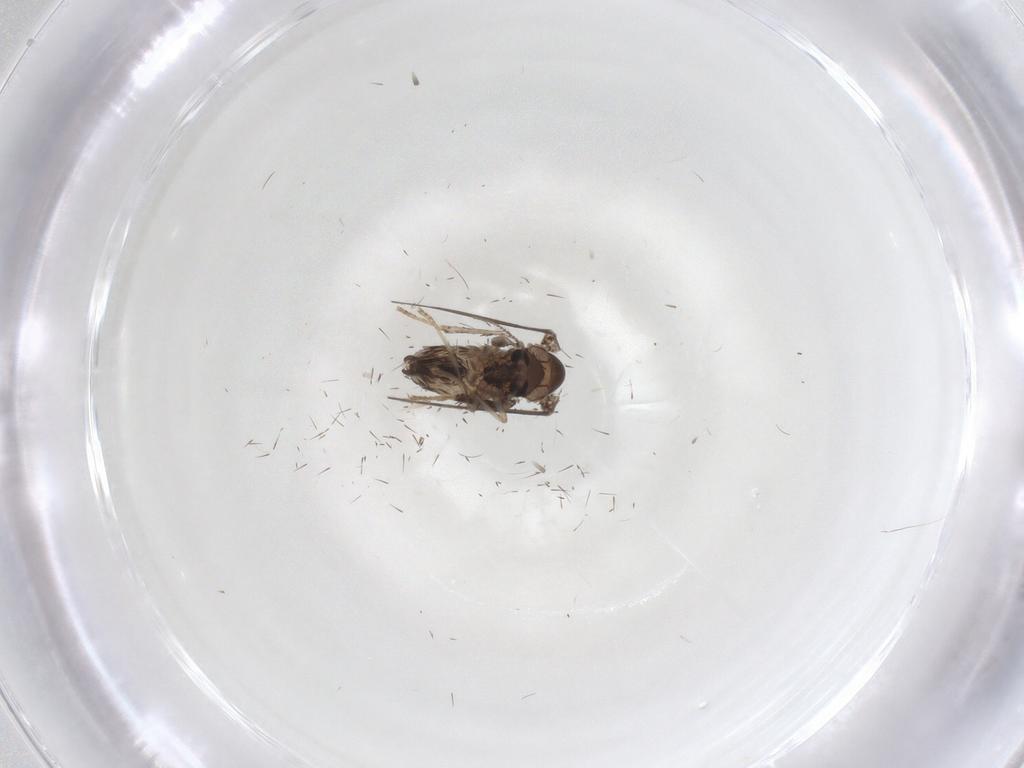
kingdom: Animalia
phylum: Arthropoda
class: Insecta
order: Diptera
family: Psychodidae
